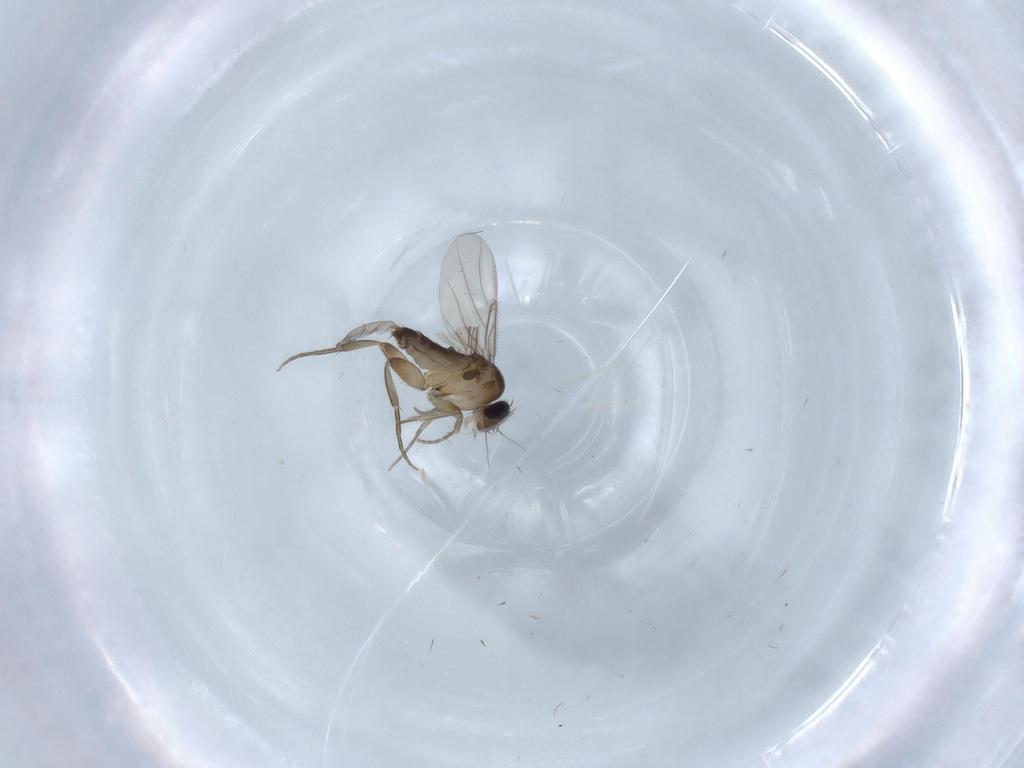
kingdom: Animalia
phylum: Arthropoda
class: Insecta
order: Diptera
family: Phoridae
